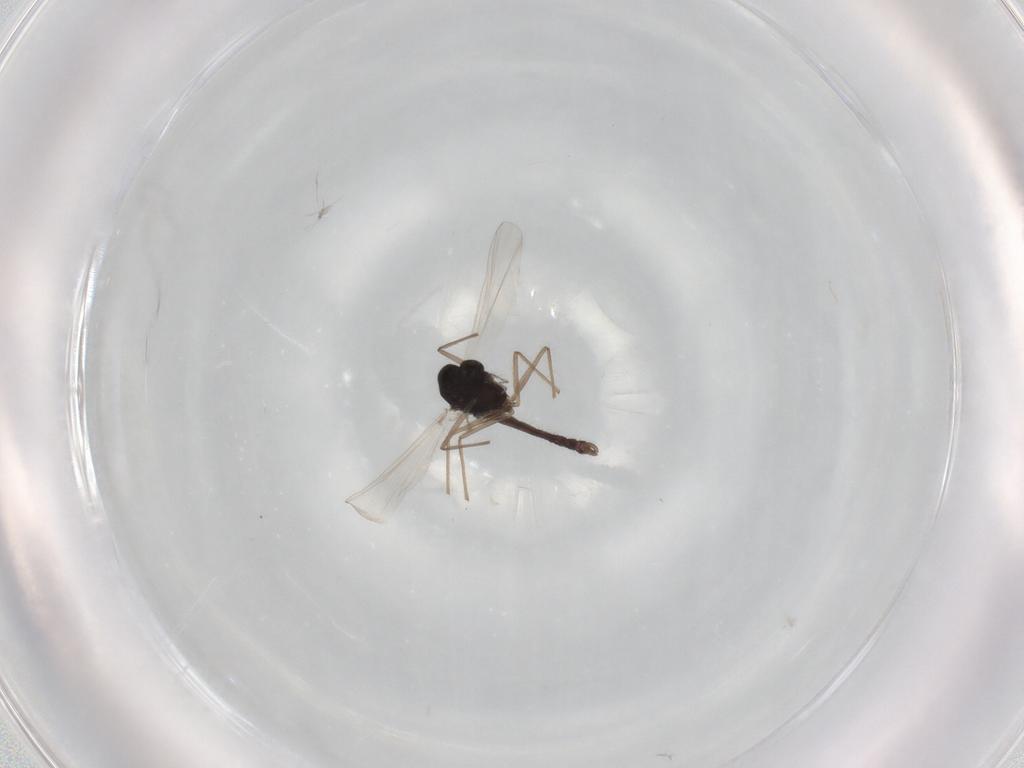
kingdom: Animalia
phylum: Arthropoda
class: Insecta
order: Diptera
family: Chironomidae
